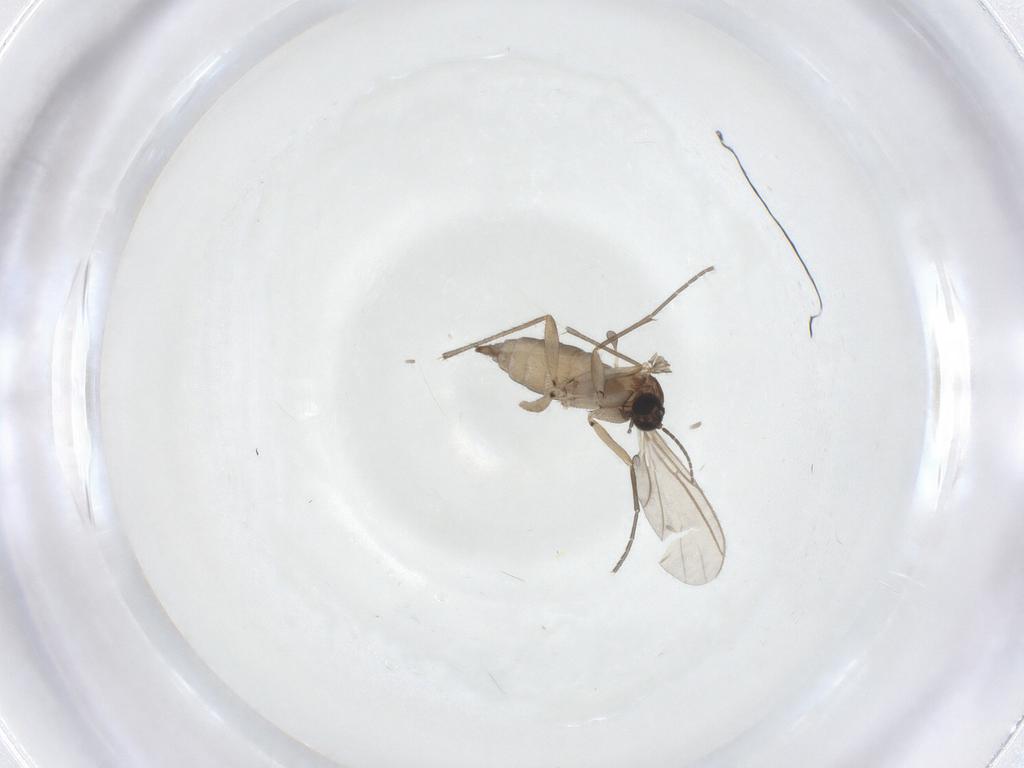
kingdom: Animalia
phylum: Arthropoda
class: Insecta
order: Diptera
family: Sciaridae
